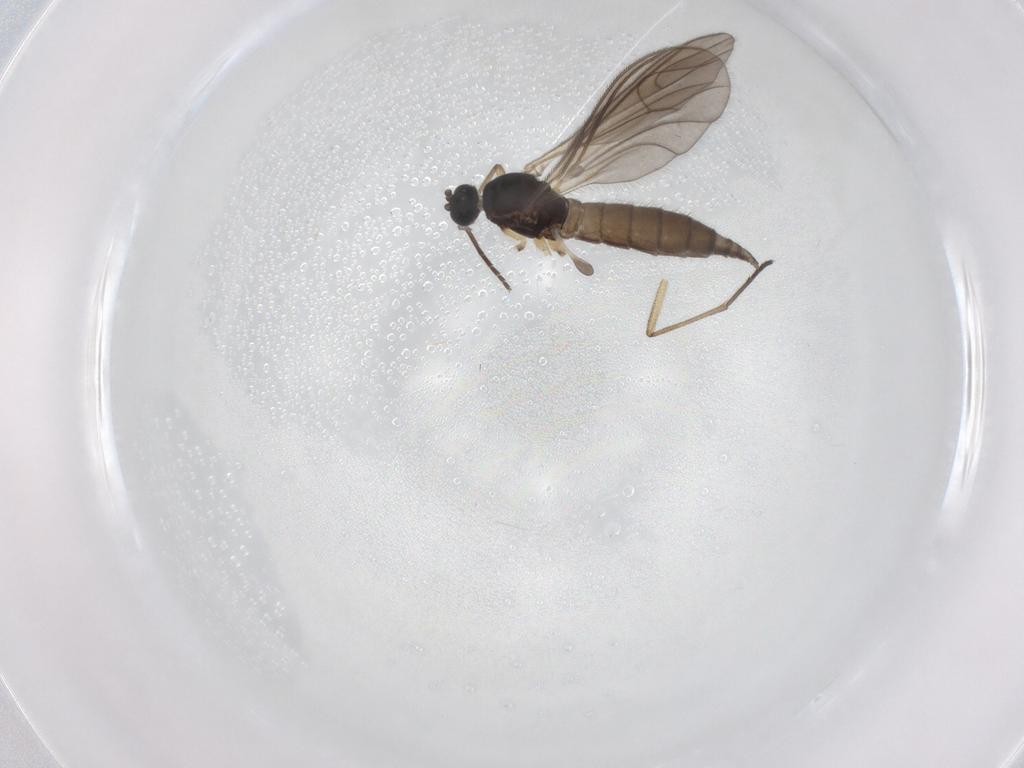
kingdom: Animalia
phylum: Arthropoda
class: Insecta
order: Diptera
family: Sciaridae
